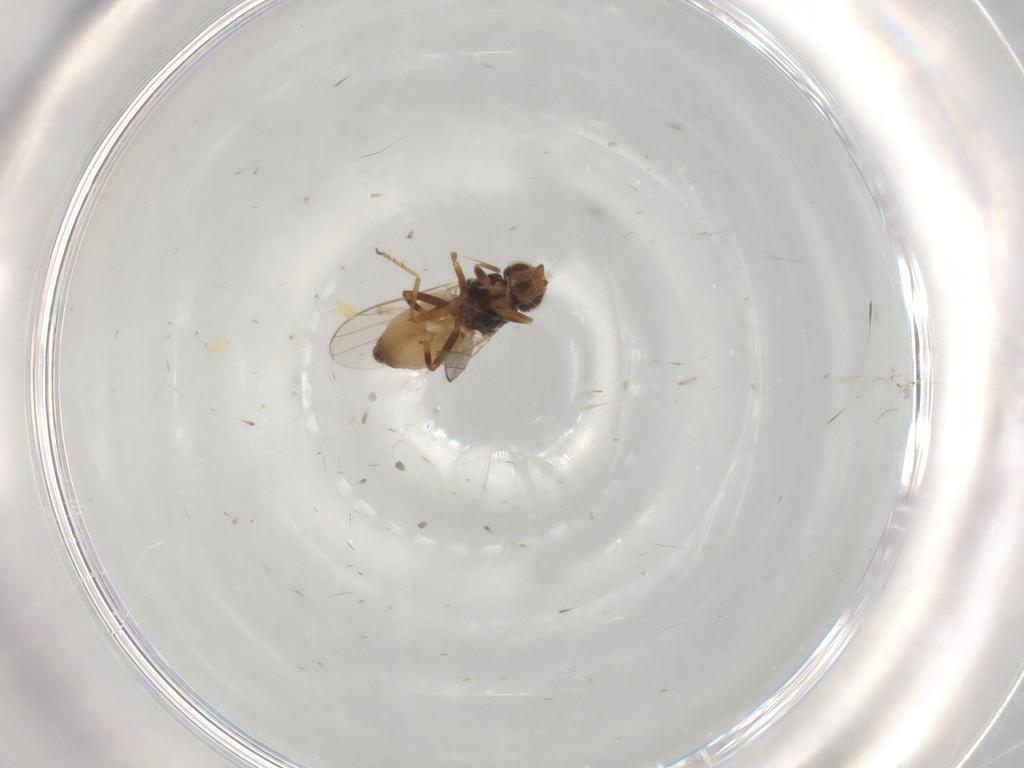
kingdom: Animalia
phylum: Arthropoda
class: Insecta
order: Diptera
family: Chloropidae
